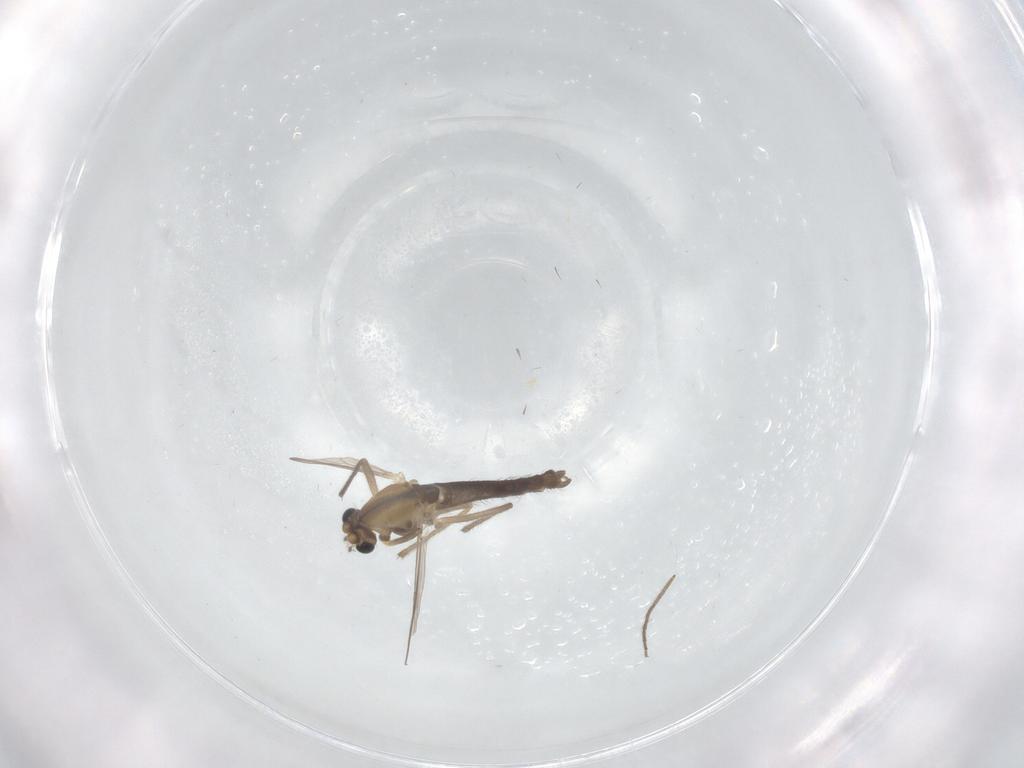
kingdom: Animalia
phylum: Arthropoda
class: Insecta
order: Diptera
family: Chironomidae
